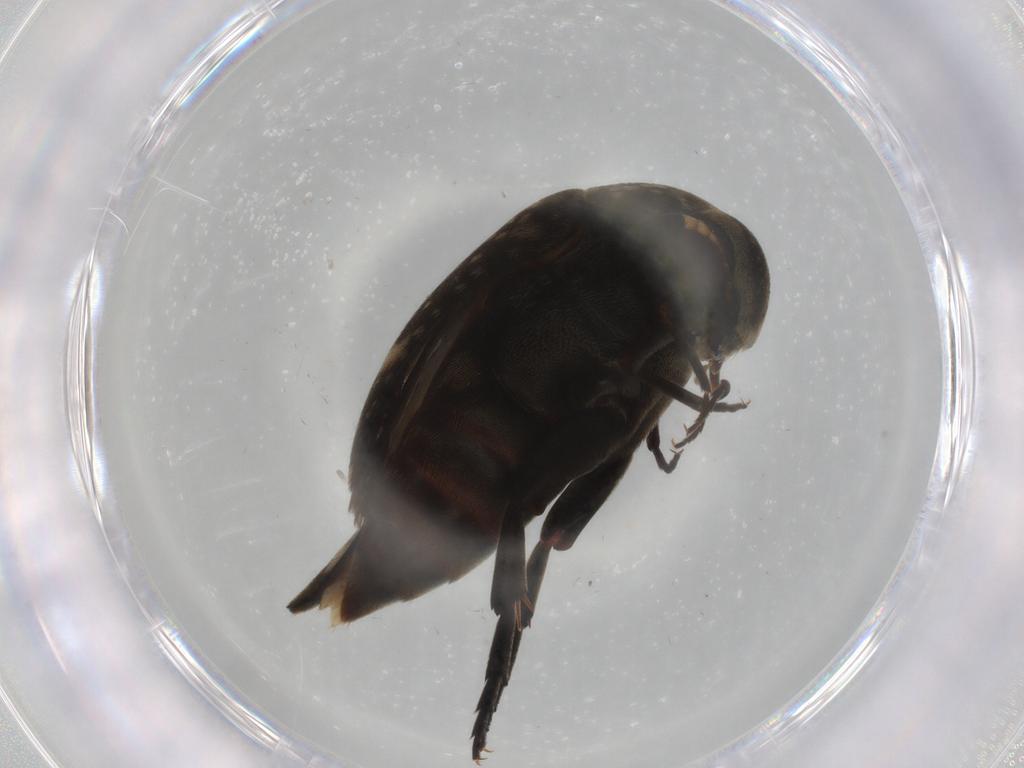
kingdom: Animalia
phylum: Arthropoda
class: Insecta
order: Coleoptera
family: Mordellidae
